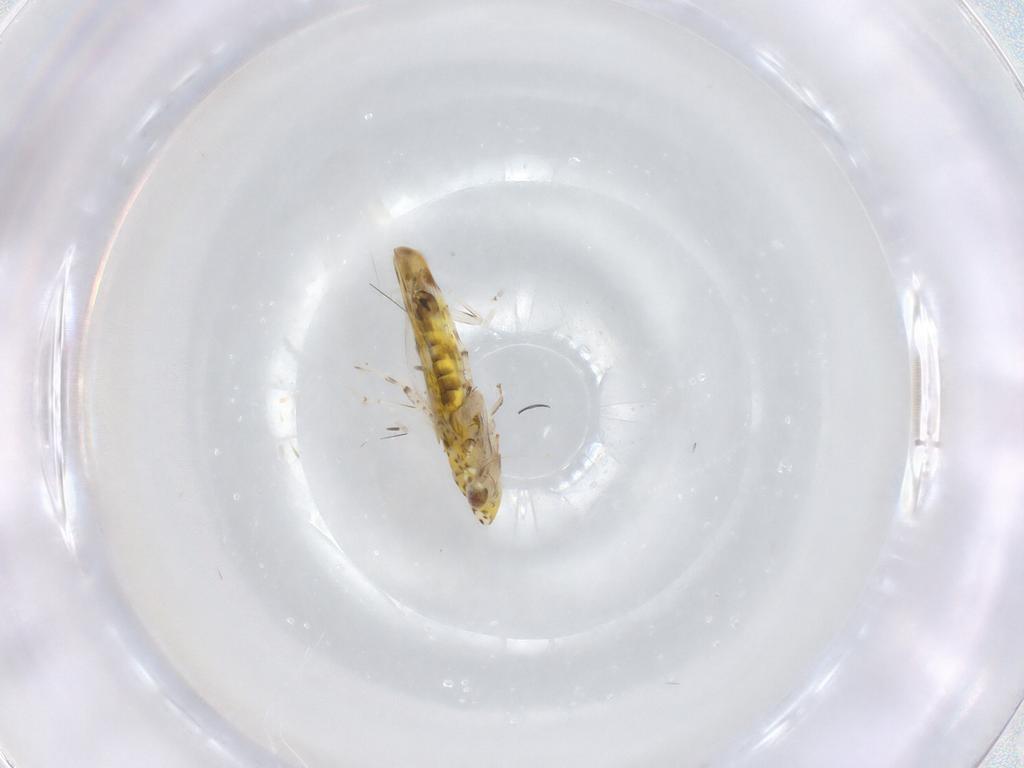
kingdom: Animalia
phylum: Arthropoda
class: Insecta
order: Hemiptera
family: Cicadellidae
